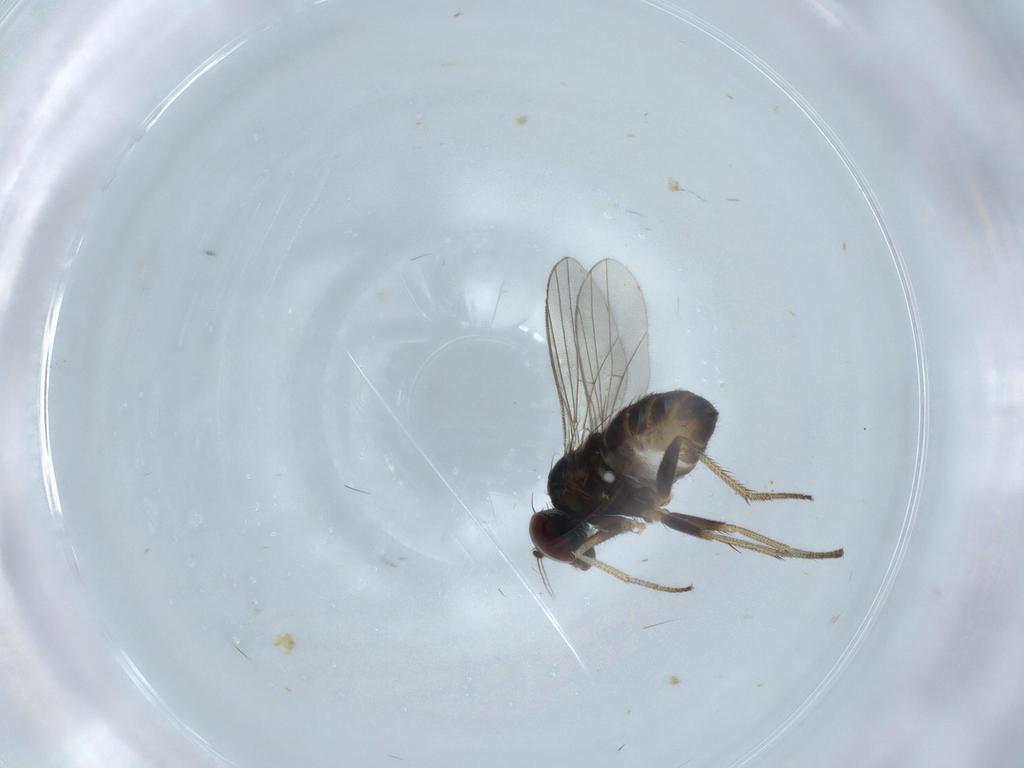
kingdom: Animalia
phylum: Arthropoda
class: Insecta
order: Diptera
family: Dolichopodidae
